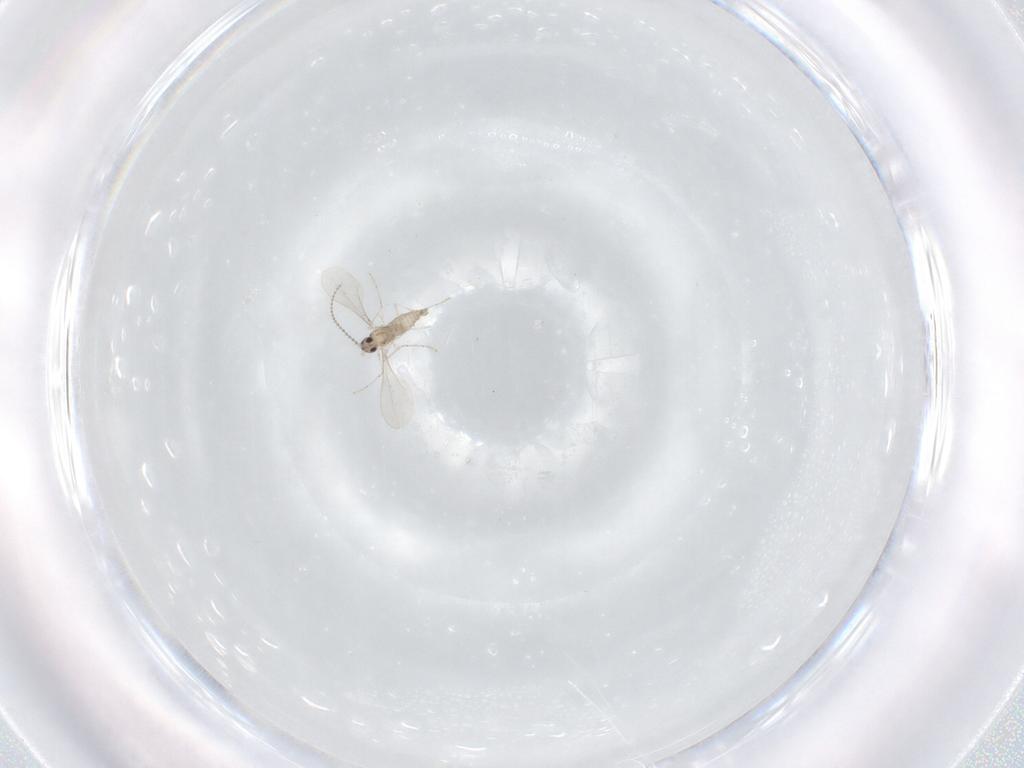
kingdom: Animalia
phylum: Arthropoda
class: Insecta
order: Diptera
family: Cecidomyiidae
